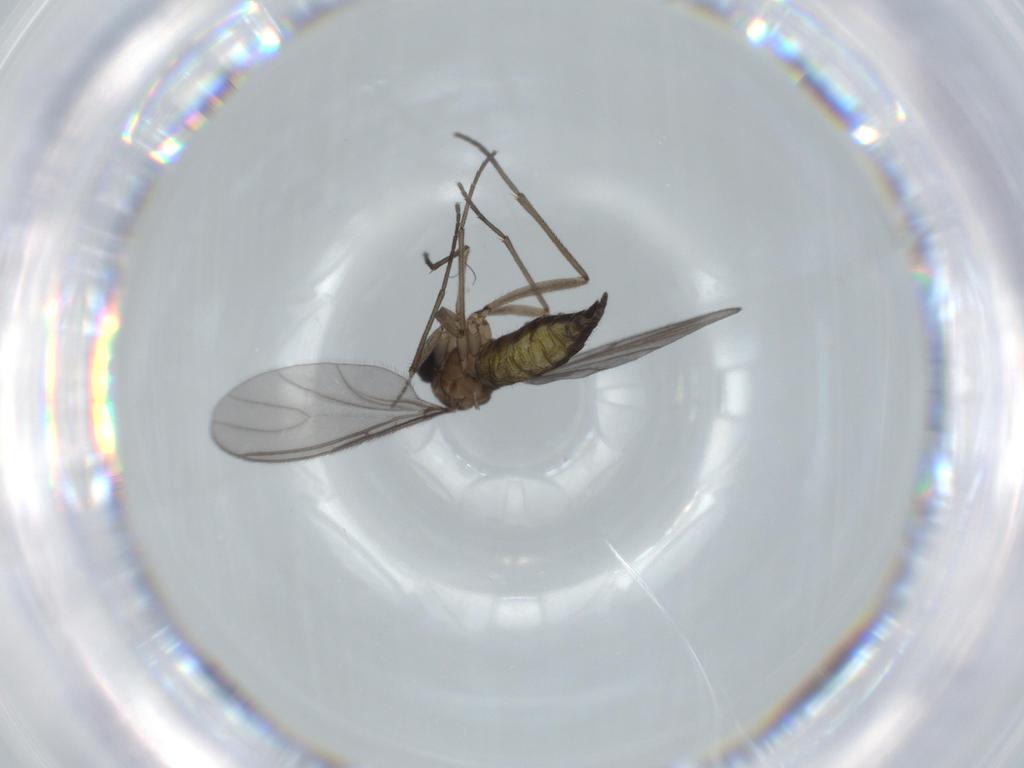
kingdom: Animalia
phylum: Arthropoda
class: Insecta
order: Diptera
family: Sciaridae
